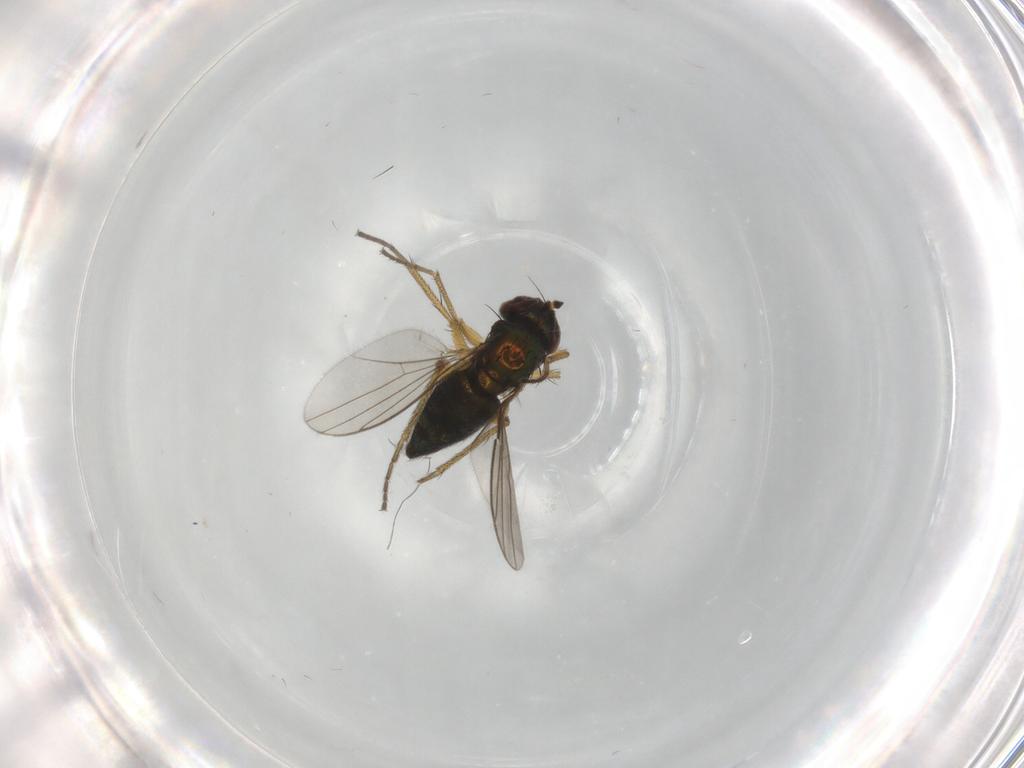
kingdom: Animalia
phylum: Arthropoda
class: Insecta
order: Diptera
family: Dolichopodidae
